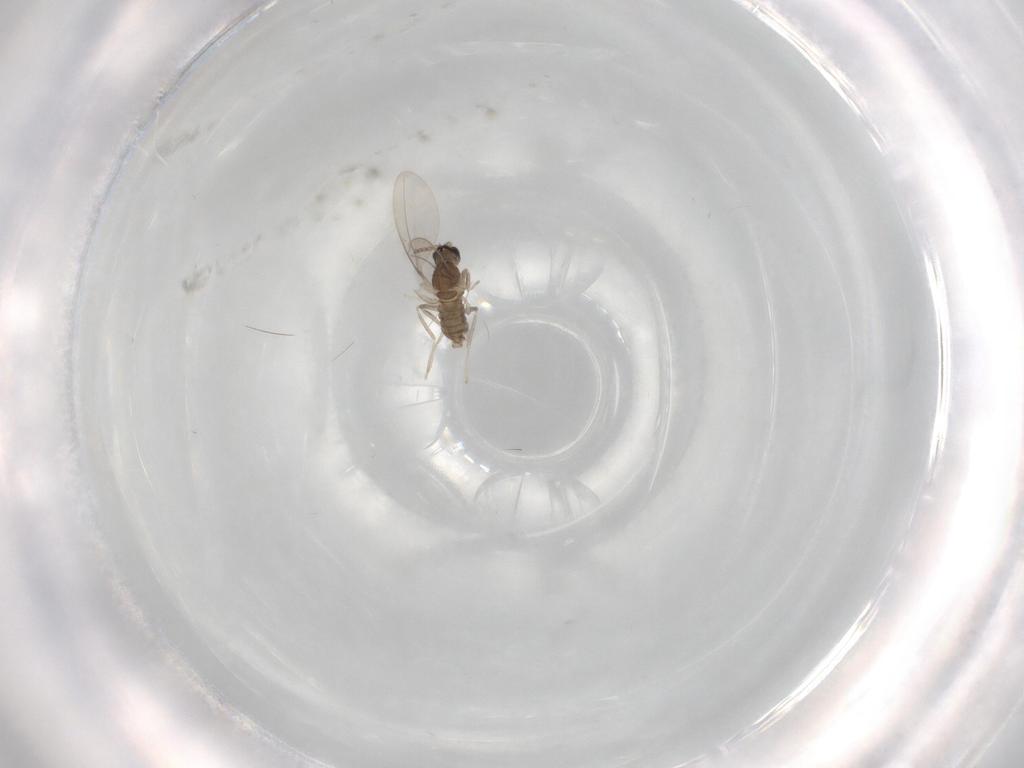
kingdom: Animalia
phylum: Arthropoda
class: Insecta
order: Diptera
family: Cecidomyiidae
